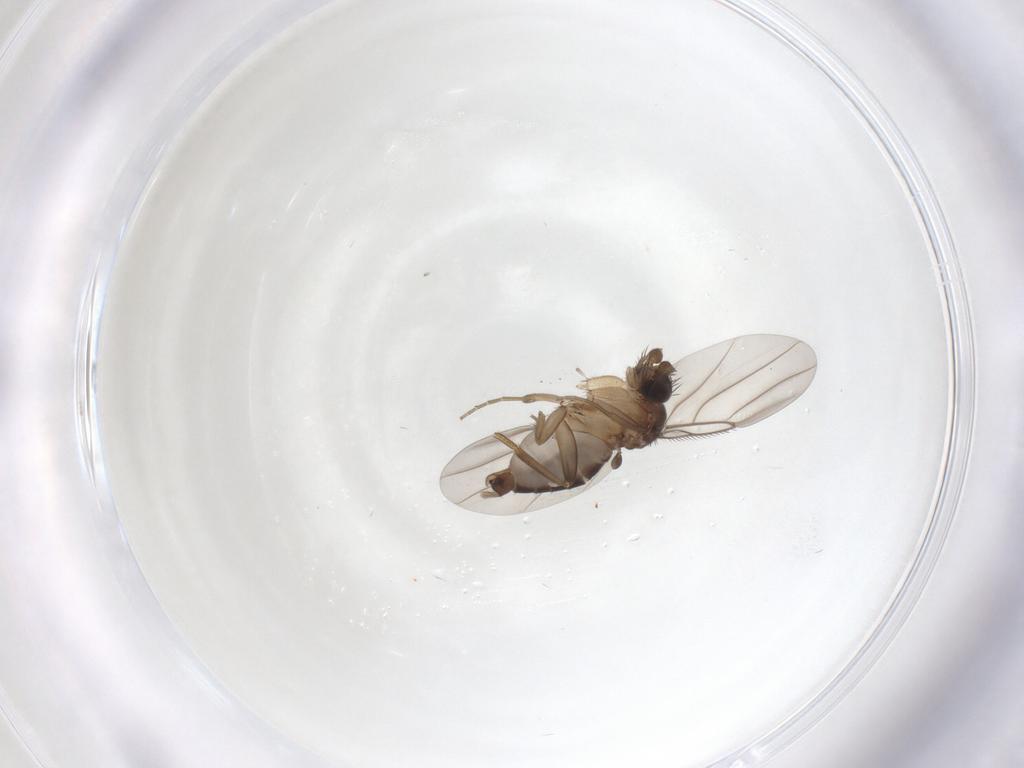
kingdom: Animalia
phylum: Arthropoda
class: Insecta
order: Diptera
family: Phoridae
